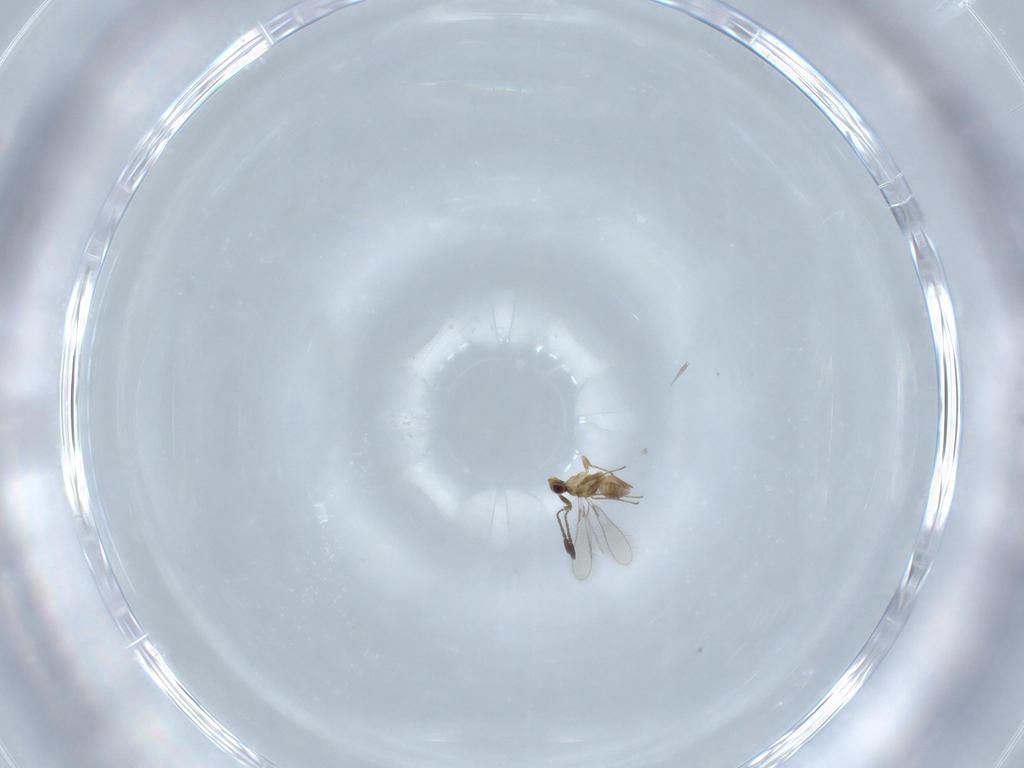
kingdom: Animalia
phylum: Arthropoda
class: Insecta
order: Hymenoptera
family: Mymaridae
